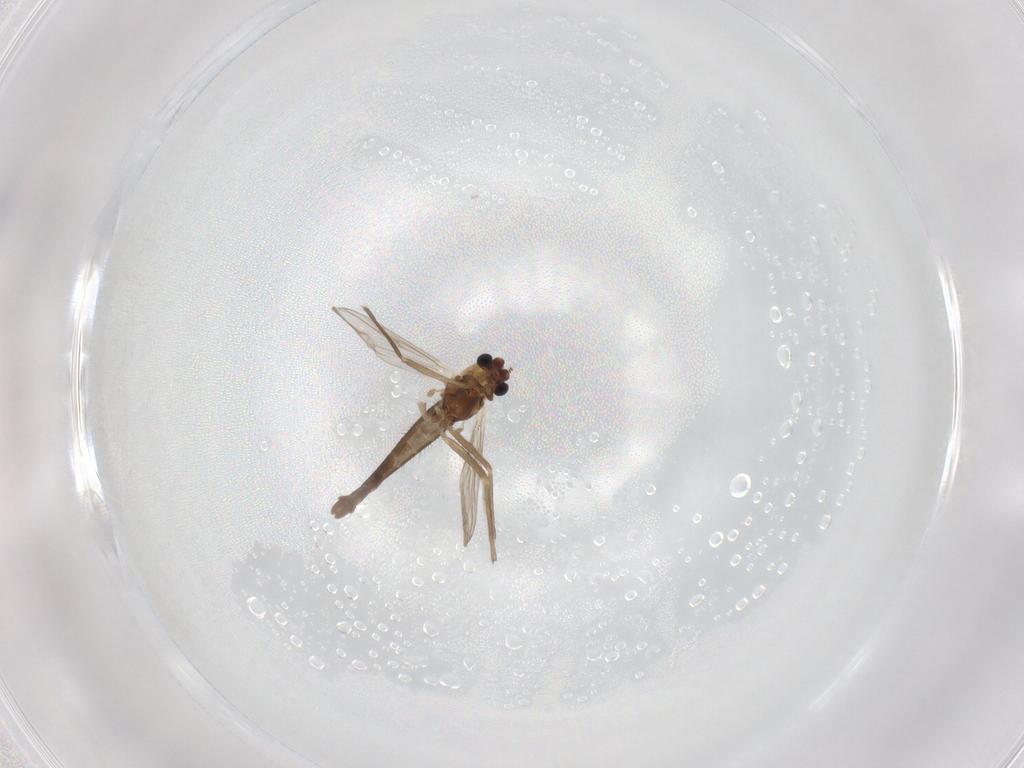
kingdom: Animalia
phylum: Arthropoda
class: Insecta
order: Diptera
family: Chironomidae
